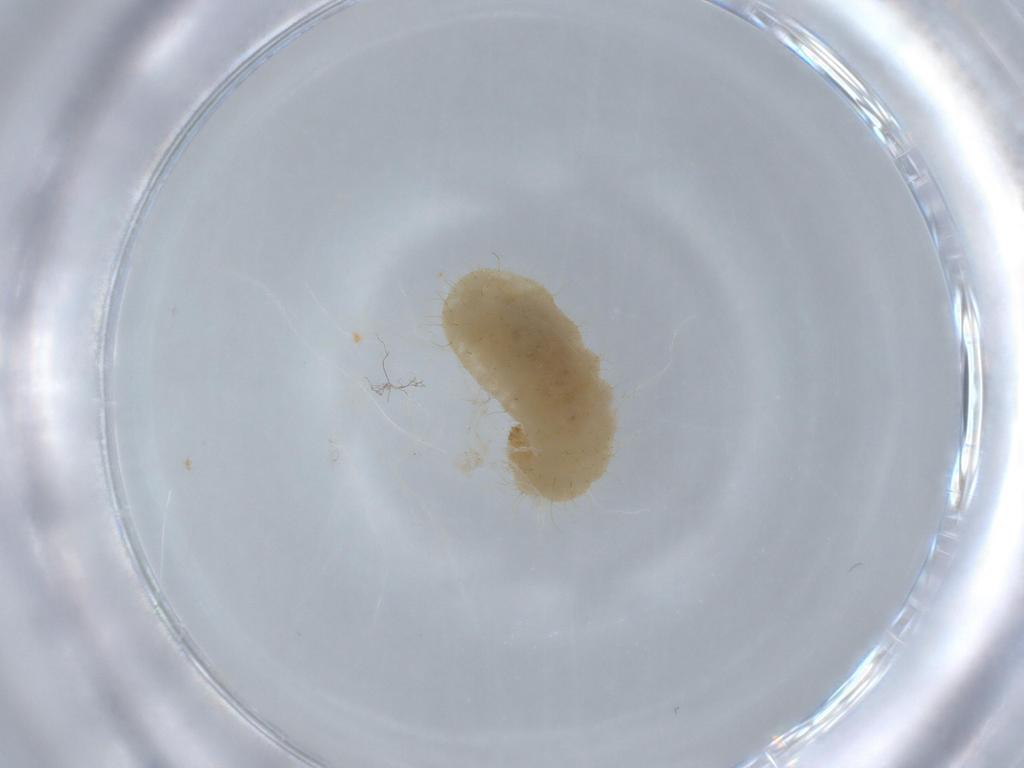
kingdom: Animalia
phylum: Arthropoda
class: Insecta
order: Hymenoptera
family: Formicidae
